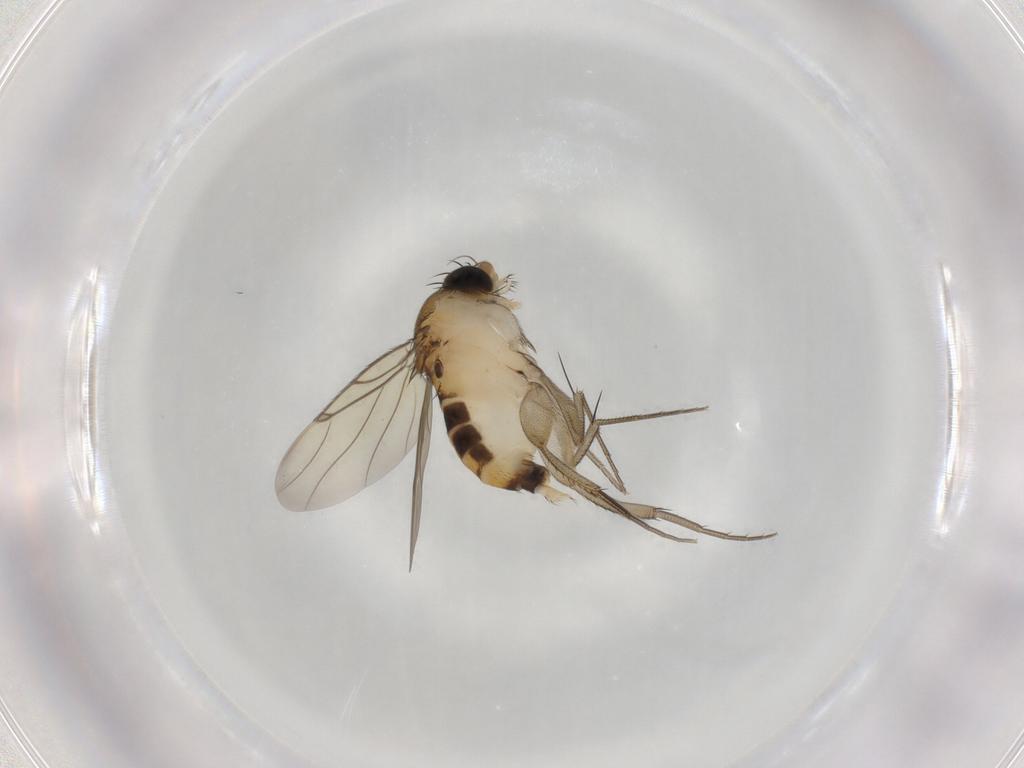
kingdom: Animalia
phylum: Arthropoda
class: Insecta
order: Diptera
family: Phoridae
